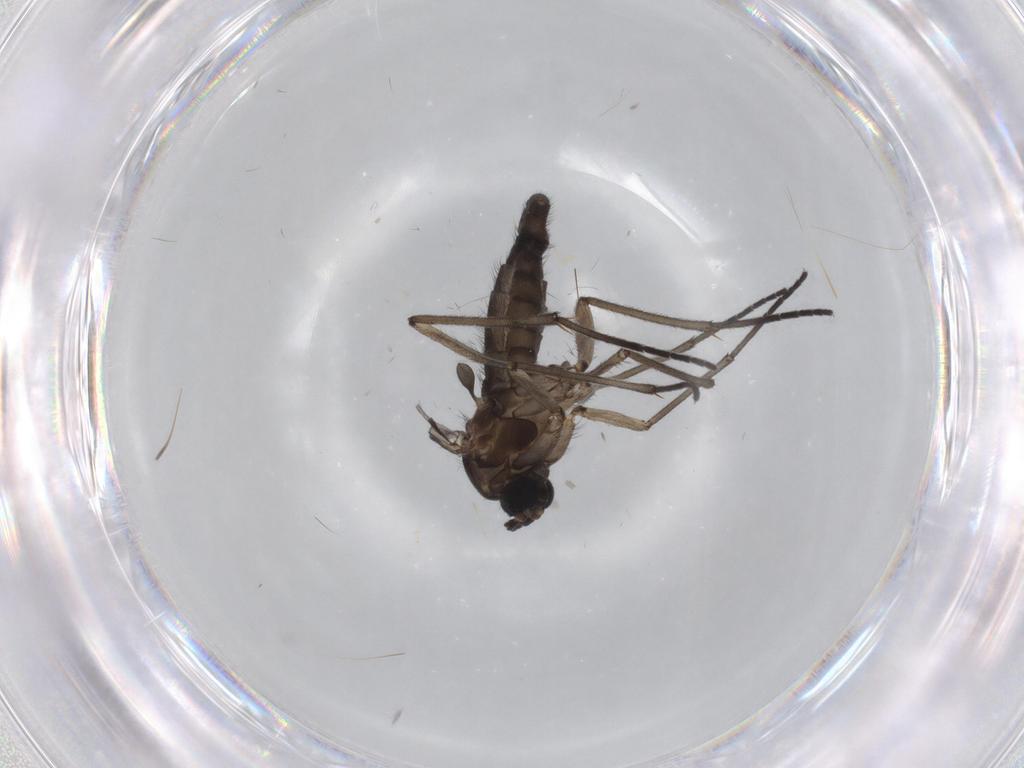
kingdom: Animalia
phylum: Arthropoda
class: Insecta
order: Diptera
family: Sciaridae
